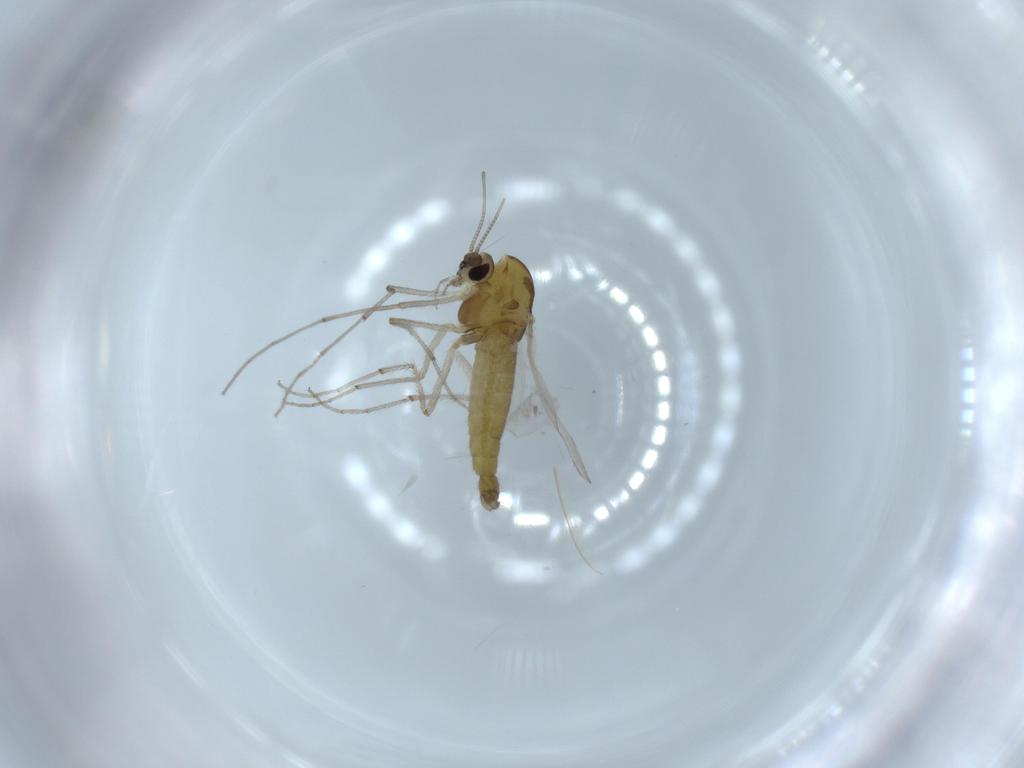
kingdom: Animalia
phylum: Arthropoda
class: Insecta
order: Diptera
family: Chironomidae
